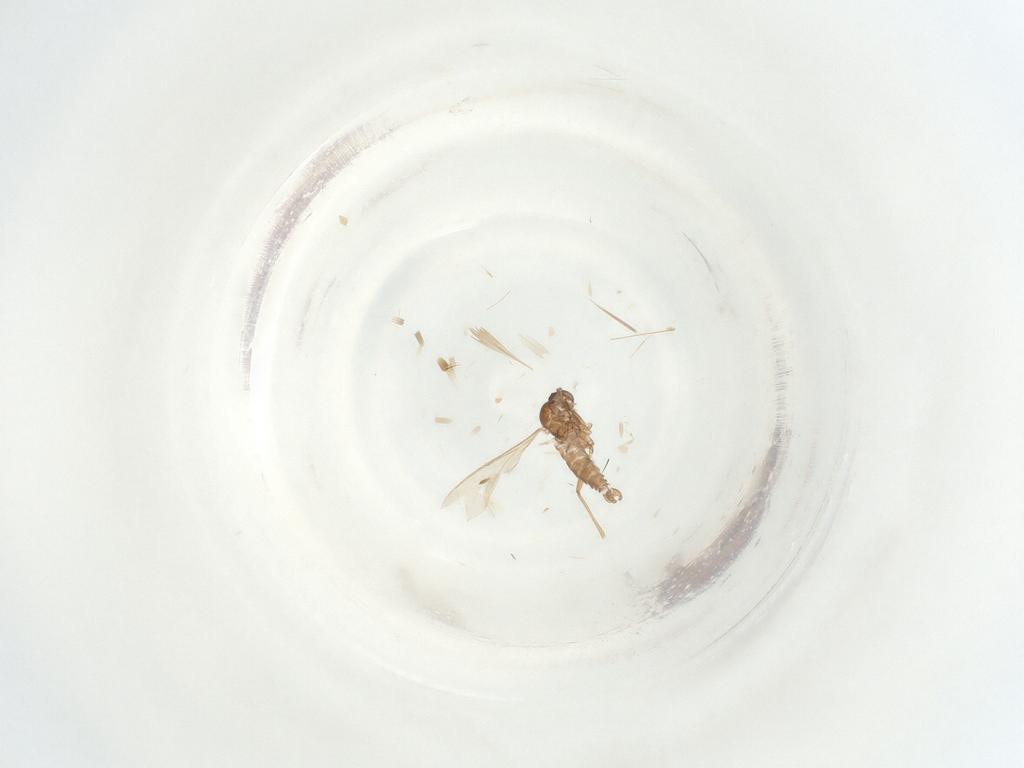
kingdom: Animalia
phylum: Arthropoda
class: Insecta
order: Diptera
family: Sciaridae
